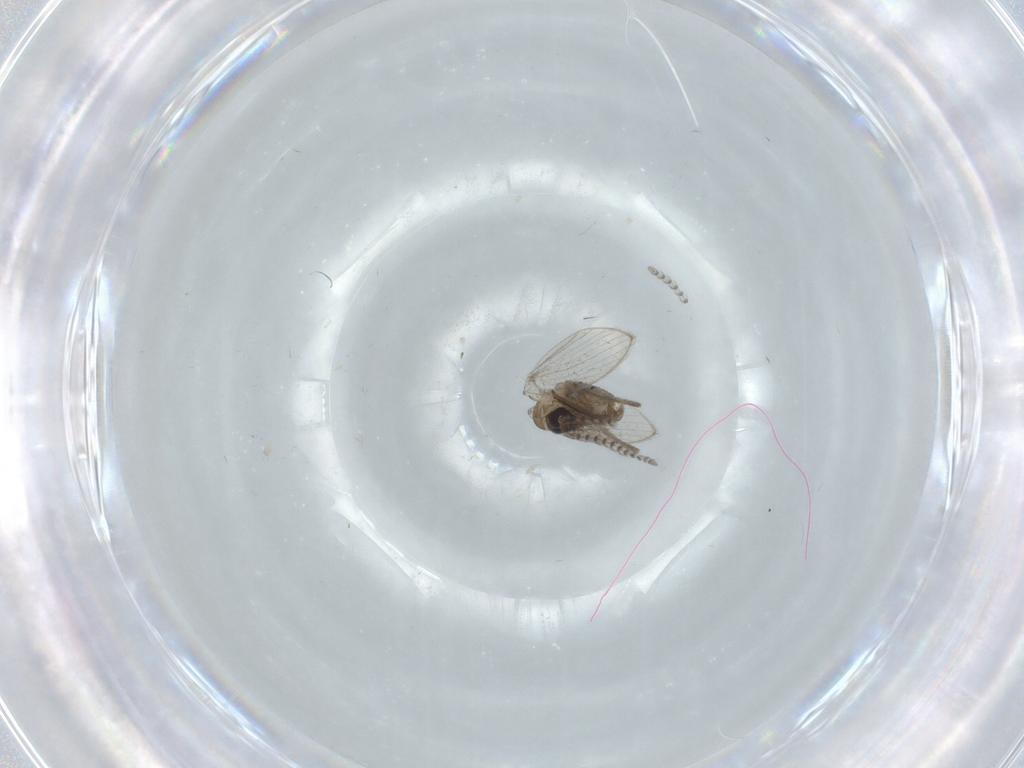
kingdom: Animalia
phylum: Arthropoda
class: Insecta
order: Diptera
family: Psychodidae
